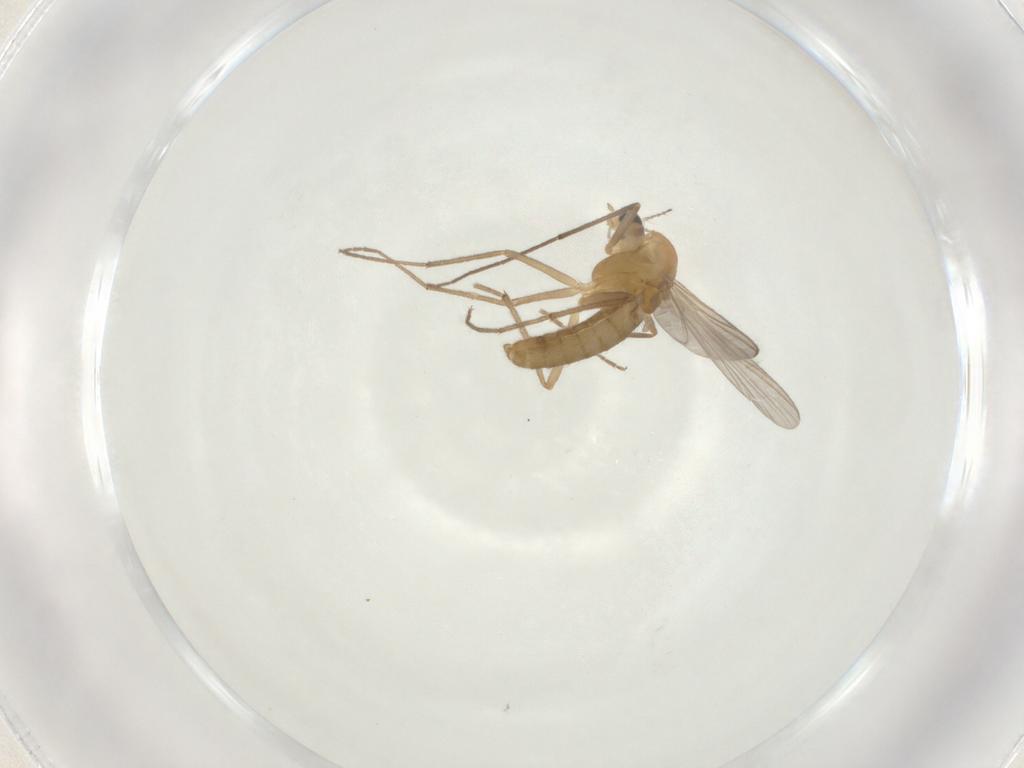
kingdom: Animalia
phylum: Arthropoda
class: Insecta
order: Diptera
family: Chironomidae
